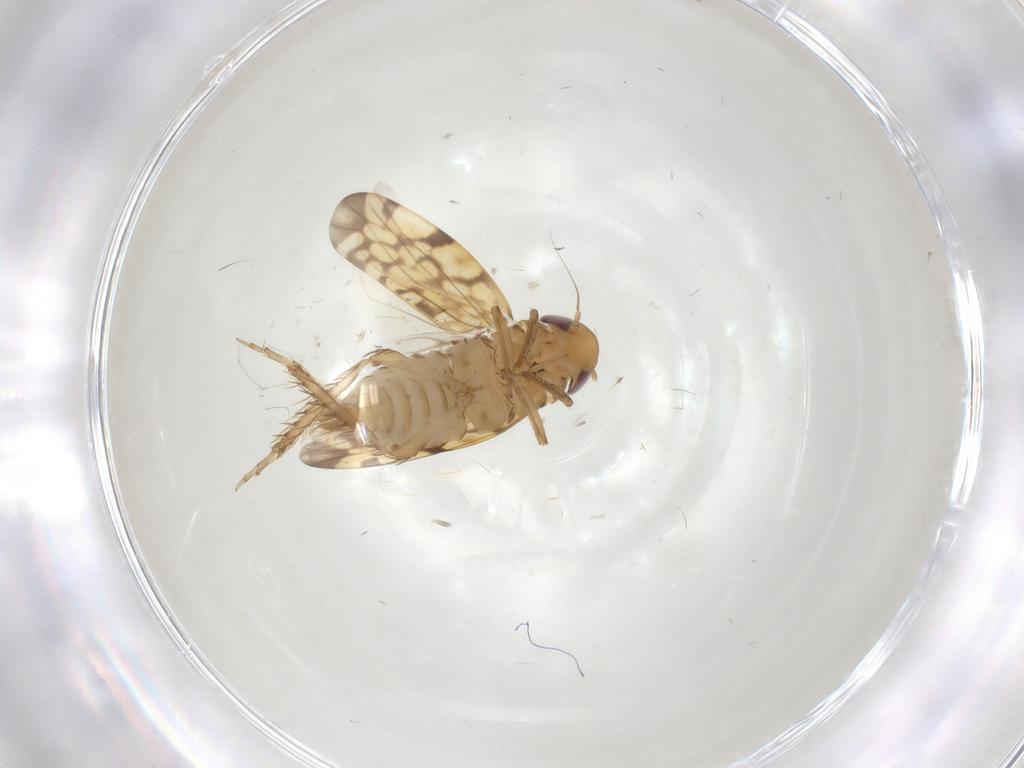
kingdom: Animalia
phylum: Arthropoda
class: Insecta
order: Hemiptera
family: Cicadellidae
